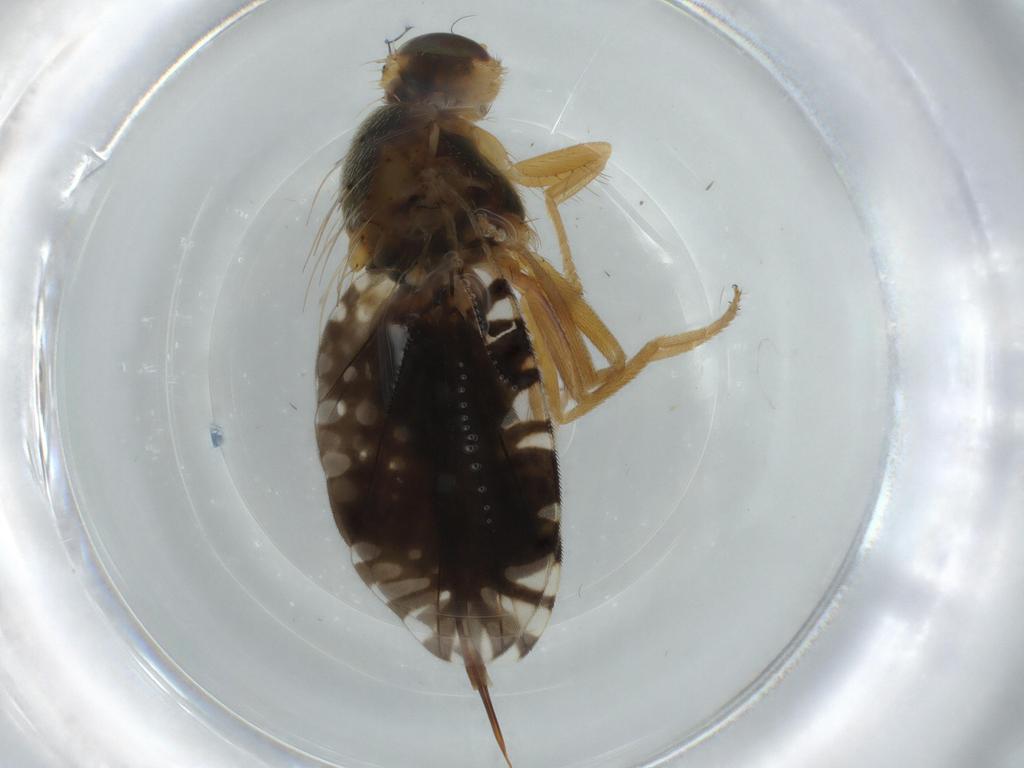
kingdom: Animalia
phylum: Arthropoda
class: Insecta
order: Diptera
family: Tephritidae
